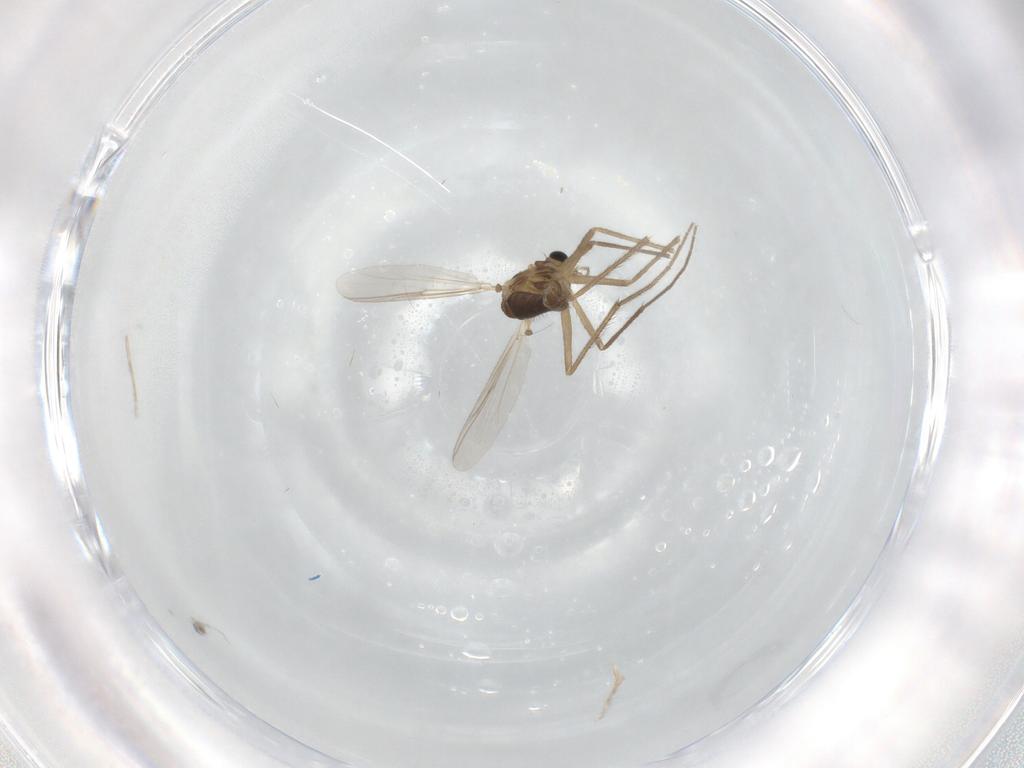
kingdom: Animalia
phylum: Arthropoda
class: Insecta
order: Diptera
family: Chironomidae
